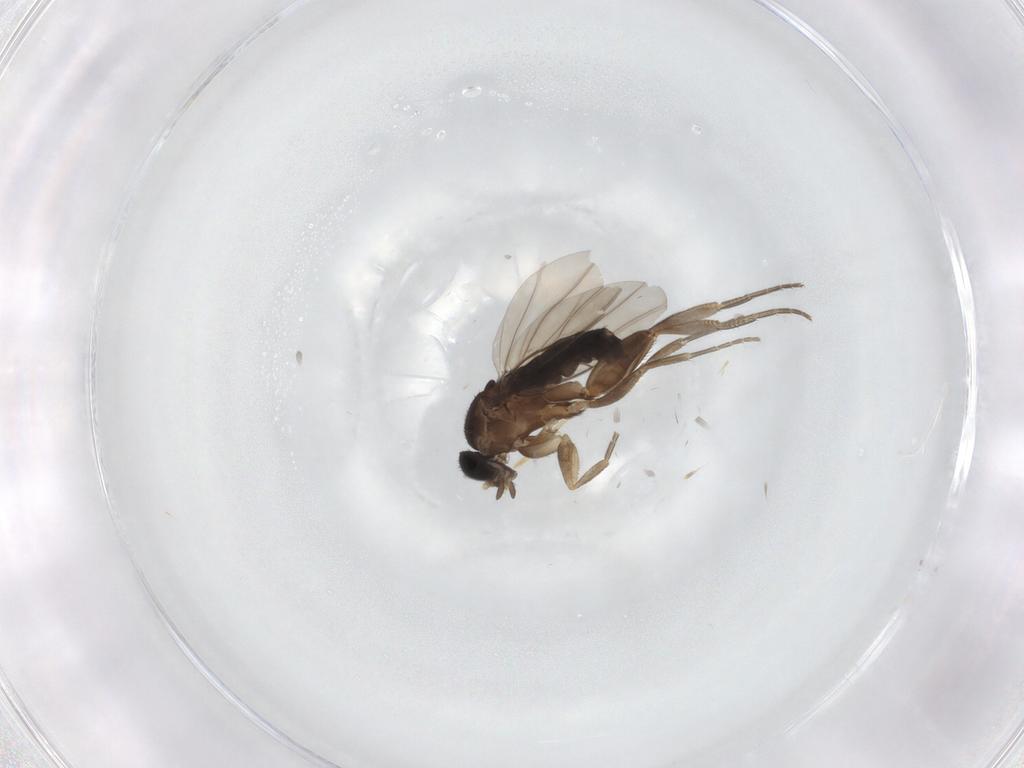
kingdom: Animalia
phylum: Arthropoda
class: Insecta
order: Diptera
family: Phoridae
